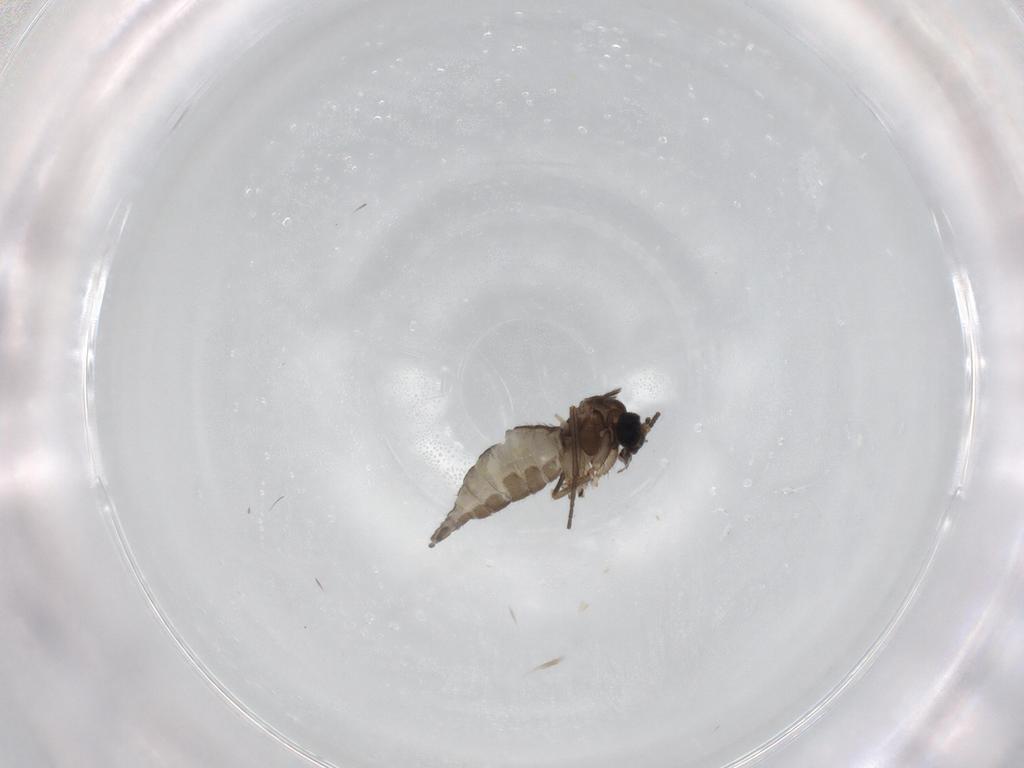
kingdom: Animalia
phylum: Arthropoda
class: Insecta
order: Diptera
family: Sciaridae
